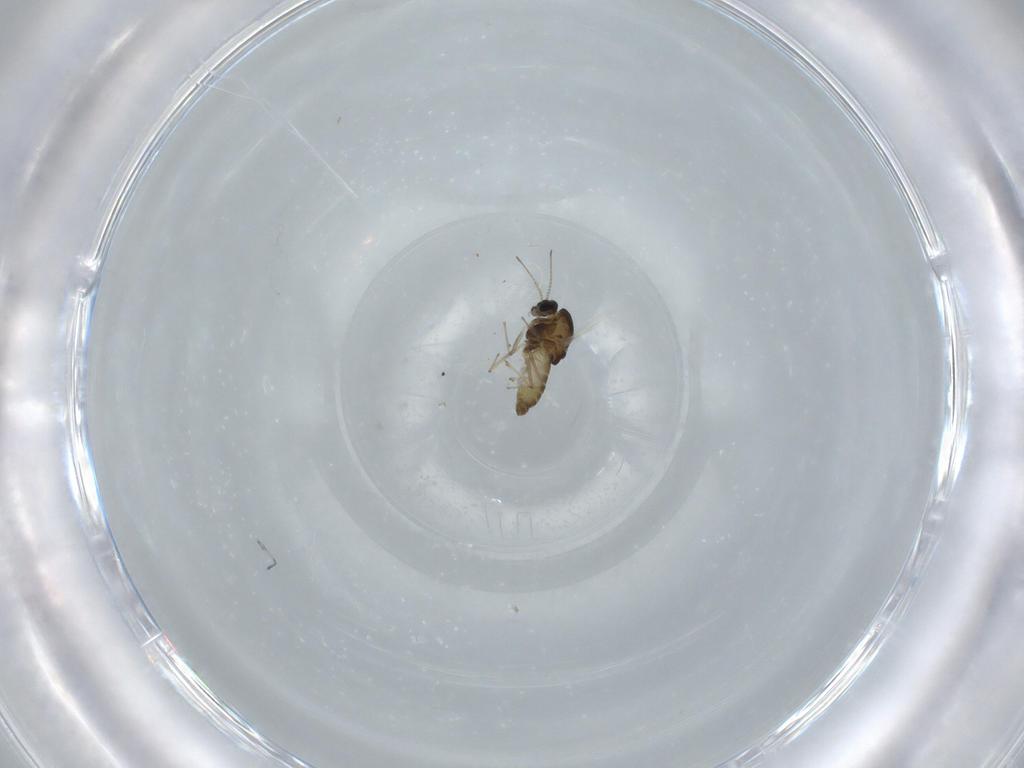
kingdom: Animalia
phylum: Arthropoda
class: Insecta
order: Diptera
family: Chironomidae
